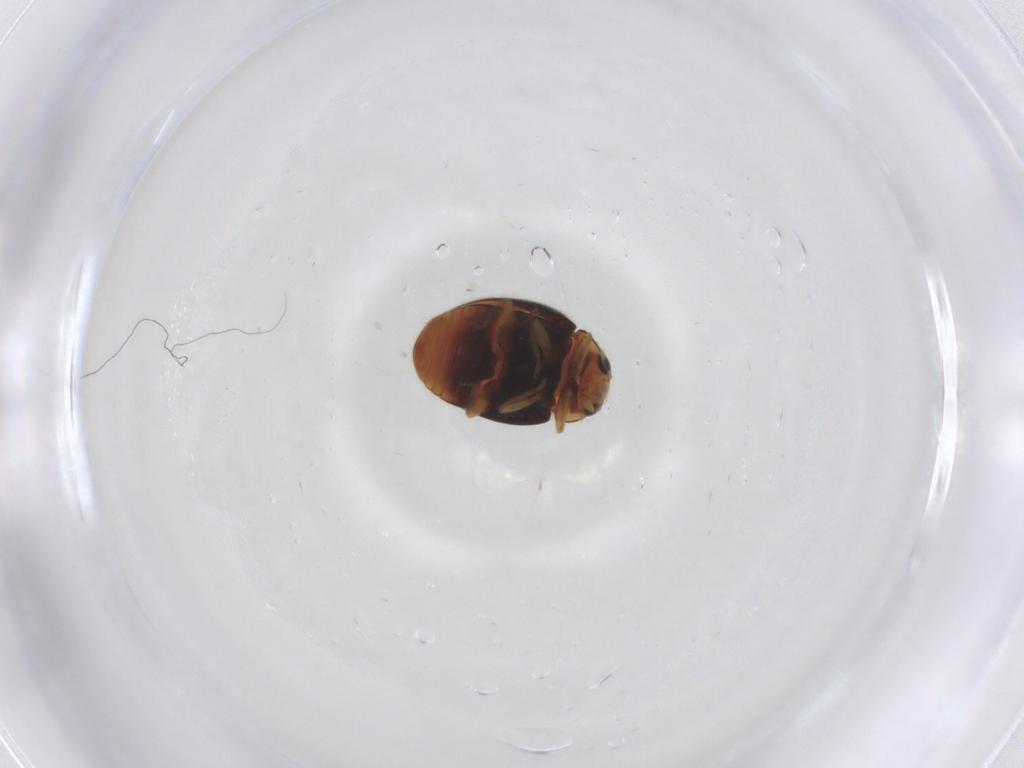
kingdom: Animalia
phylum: Arthropoda
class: Insecta
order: Coleoptera
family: Coccinellidae
